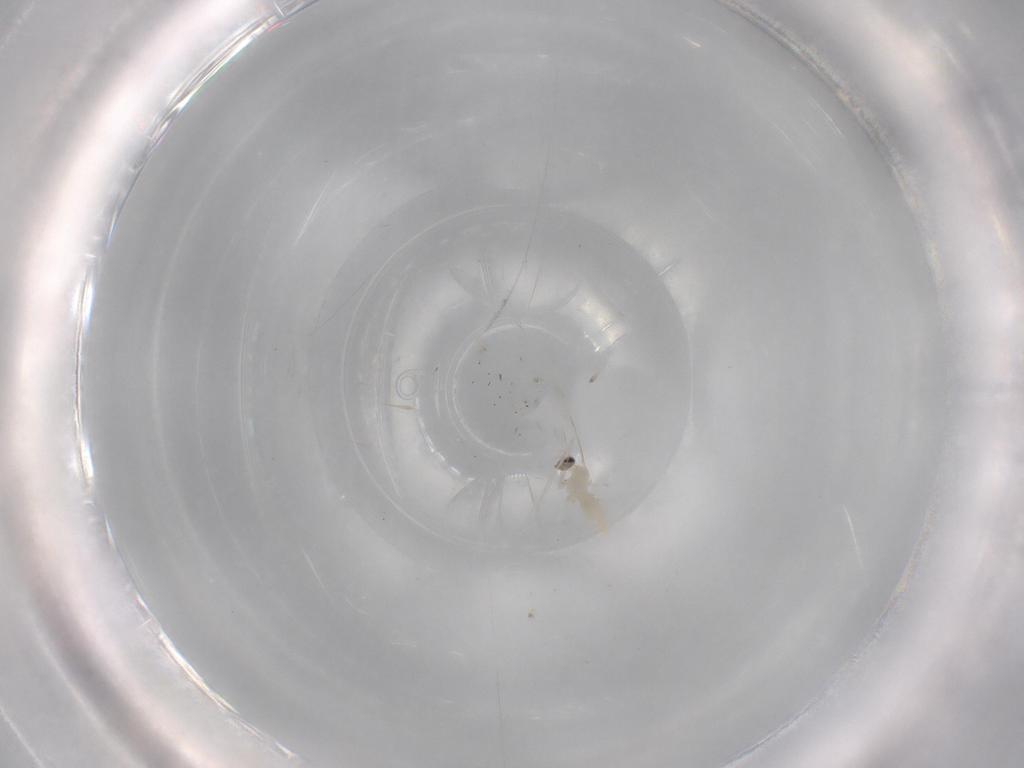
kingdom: Animalia
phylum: Arthropoda
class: Insecta
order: Diptera
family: Cecidomyiidae
